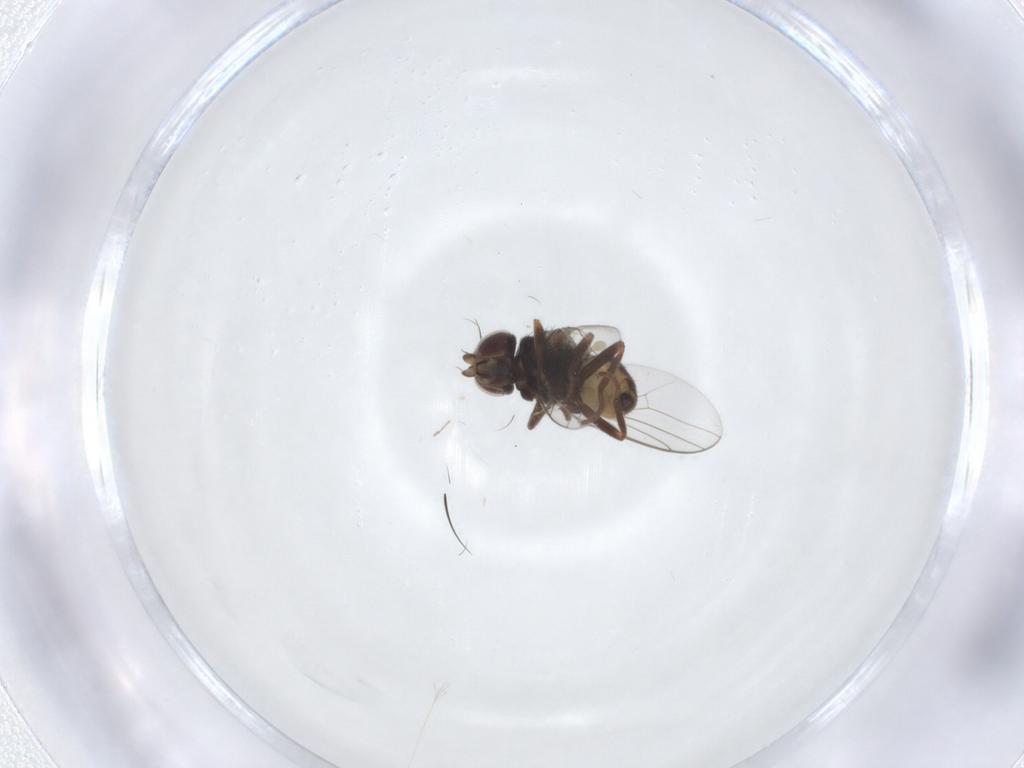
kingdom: Animalia
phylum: Arthropoda
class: Insecta
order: Diptera
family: Chloropidae
